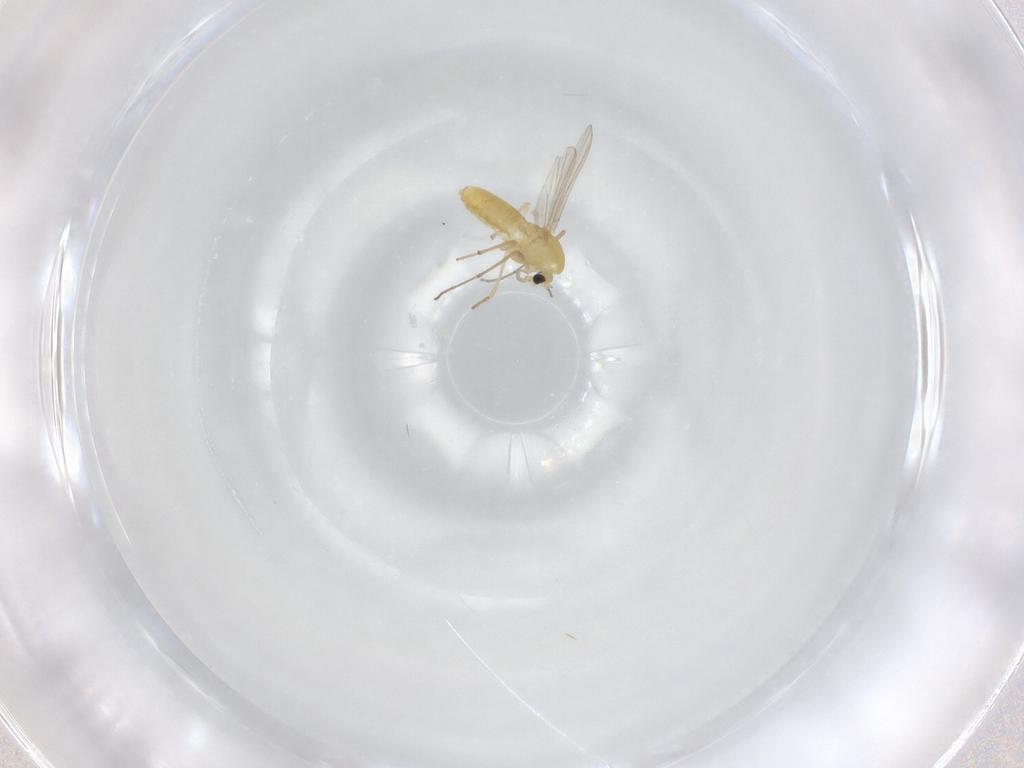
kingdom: Animalia
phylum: Arthropoda
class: Insecta
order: Diptera
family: Chironomidae
